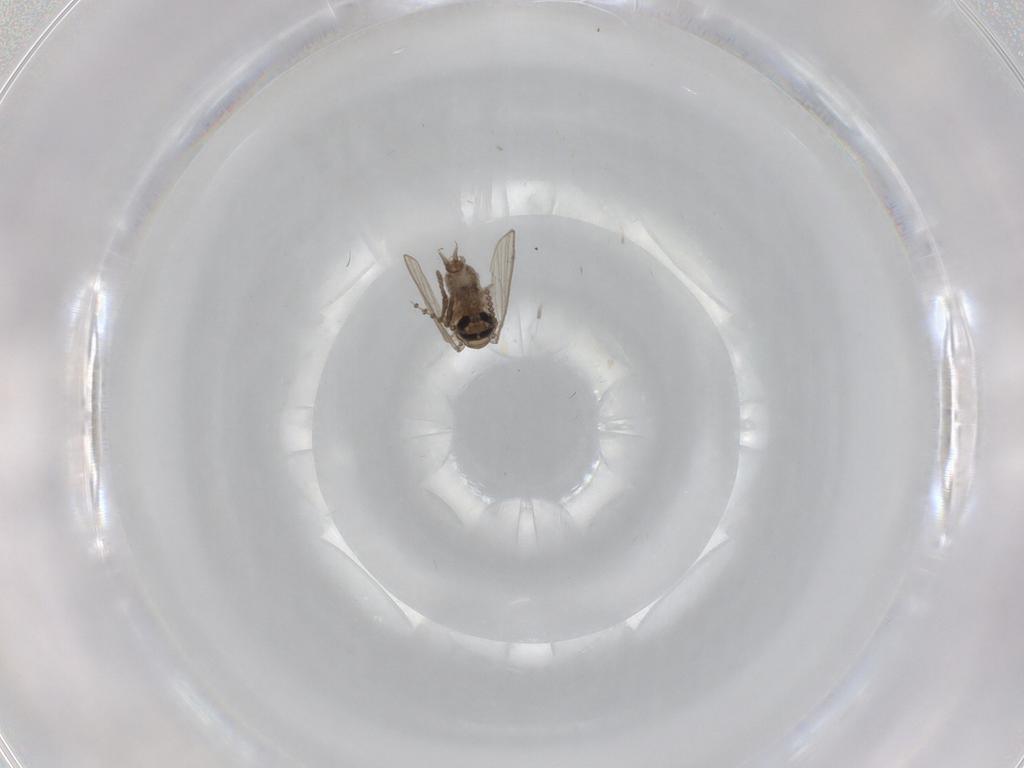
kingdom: Animalia
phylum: Arthropoda
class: Insecta
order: Diptera
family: Psychodidae
